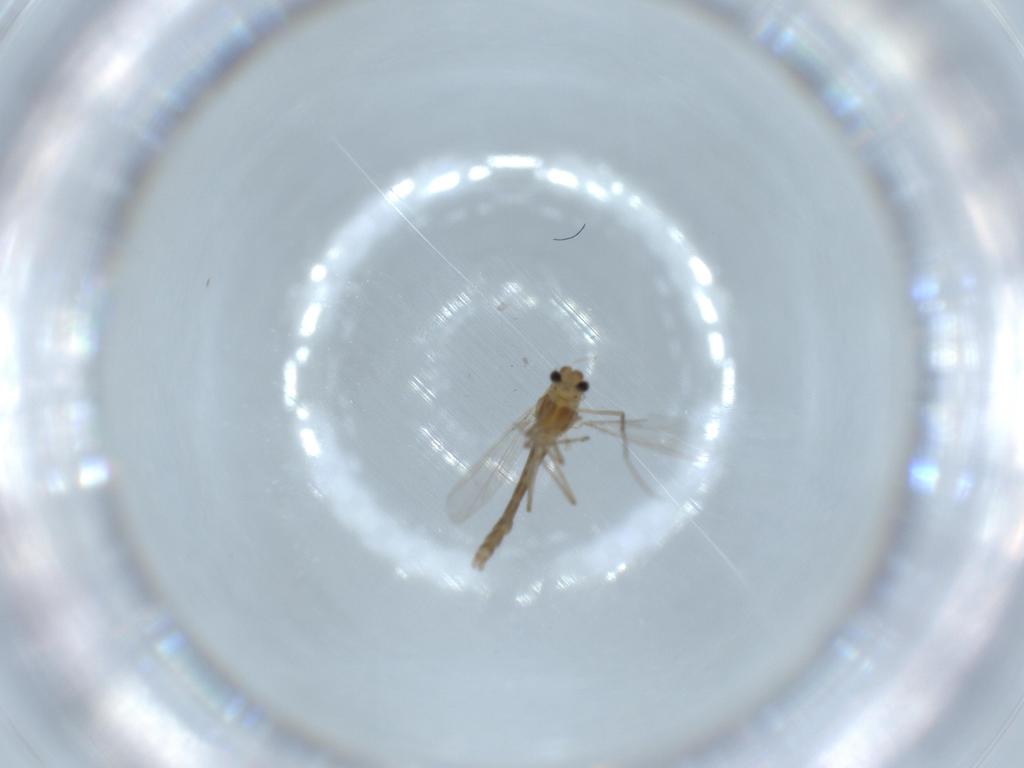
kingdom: Animalia
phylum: Arthropoda
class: Insecta
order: Diptera
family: Chironomidae
